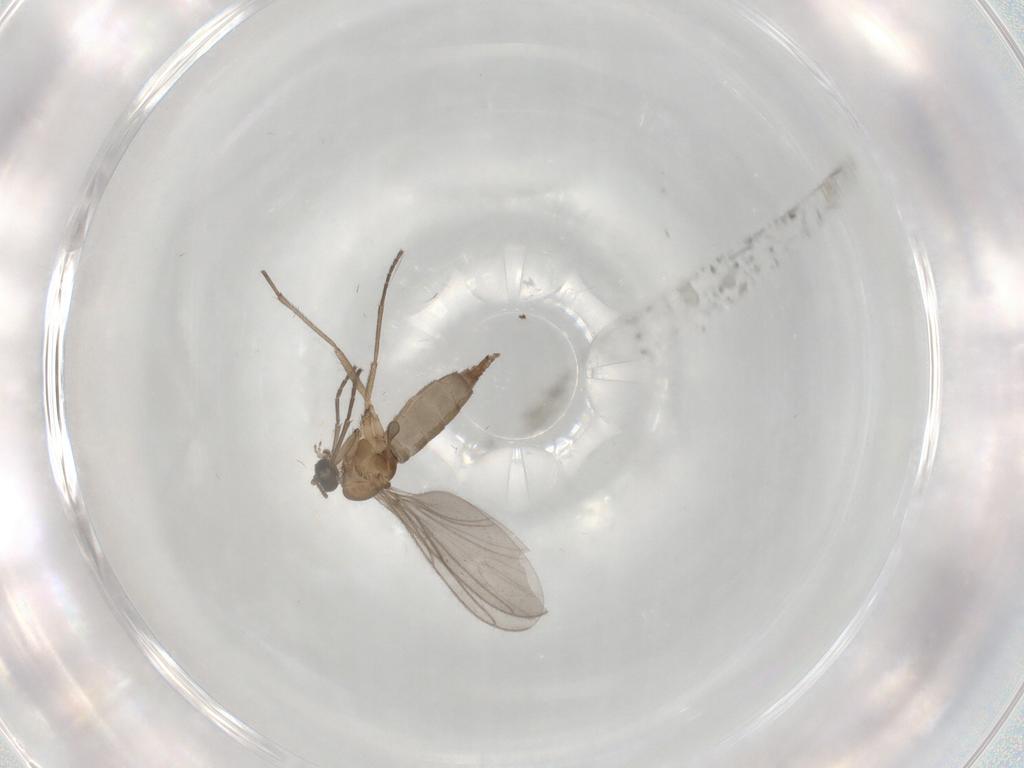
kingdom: Animalia
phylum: Arthropoda
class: Insecta
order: Diptera
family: Sciaridae
